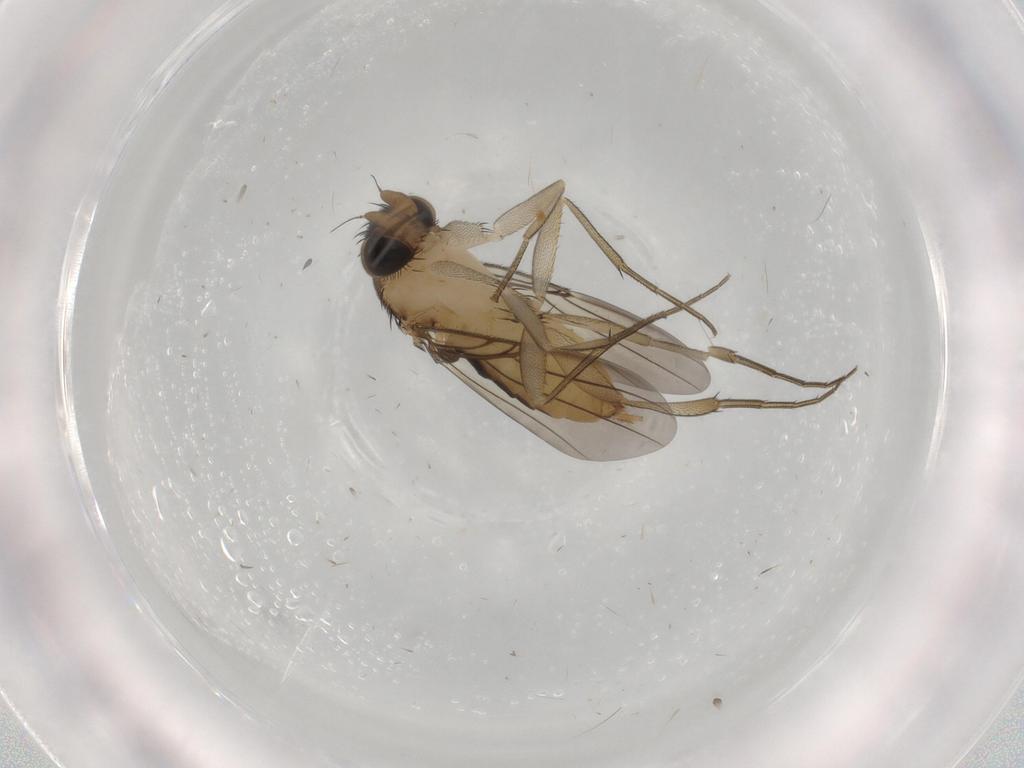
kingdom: Animalia
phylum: Arthropoda
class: Insecta
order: Diptera
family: Phoridae
